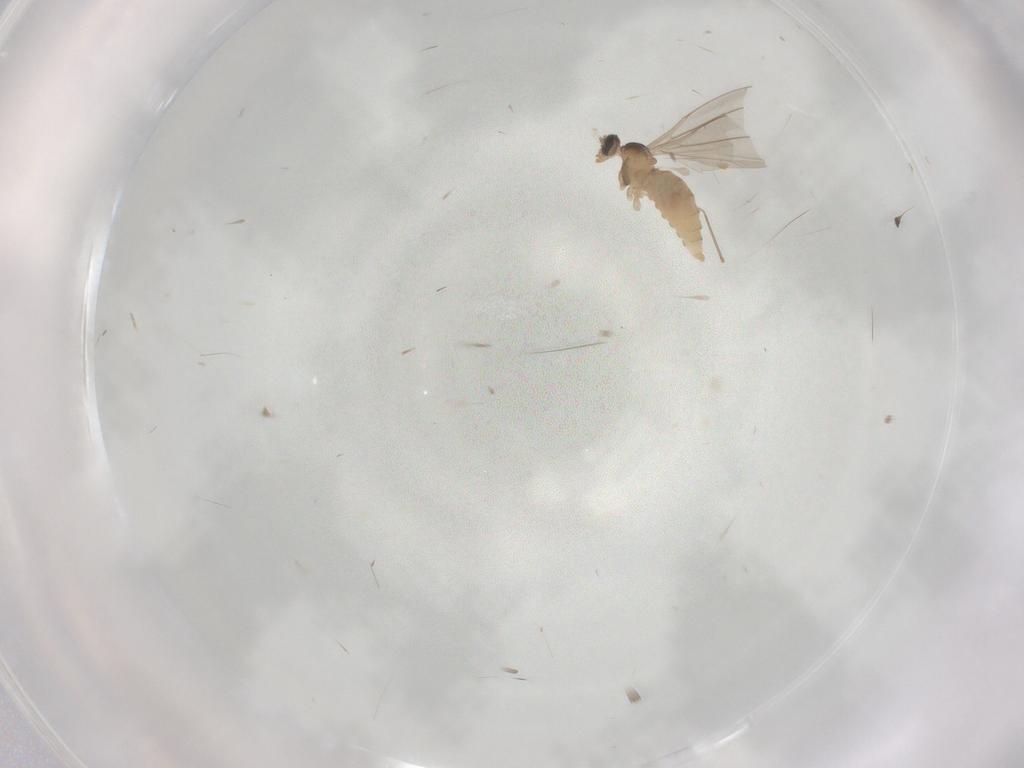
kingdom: Animalia
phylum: Arthropoda
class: Insecta
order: Diptera
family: Cecidomyiidae
